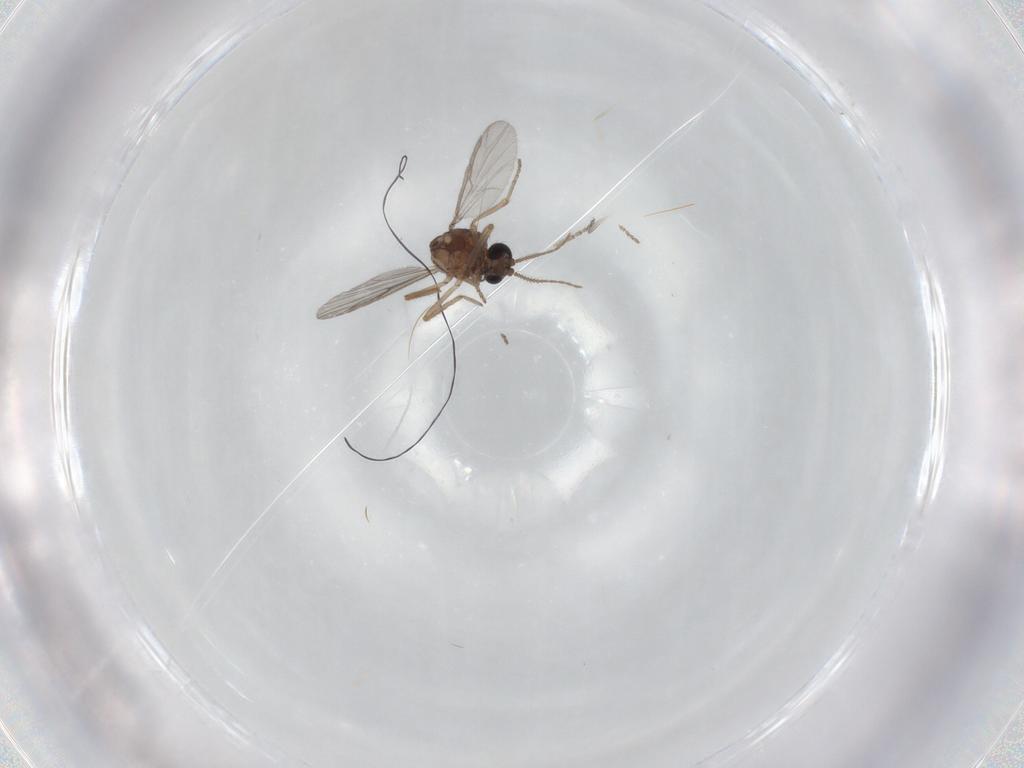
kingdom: Animalia
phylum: Arthropoda
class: Insecta
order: Diptera
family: Ceratopogonidae
